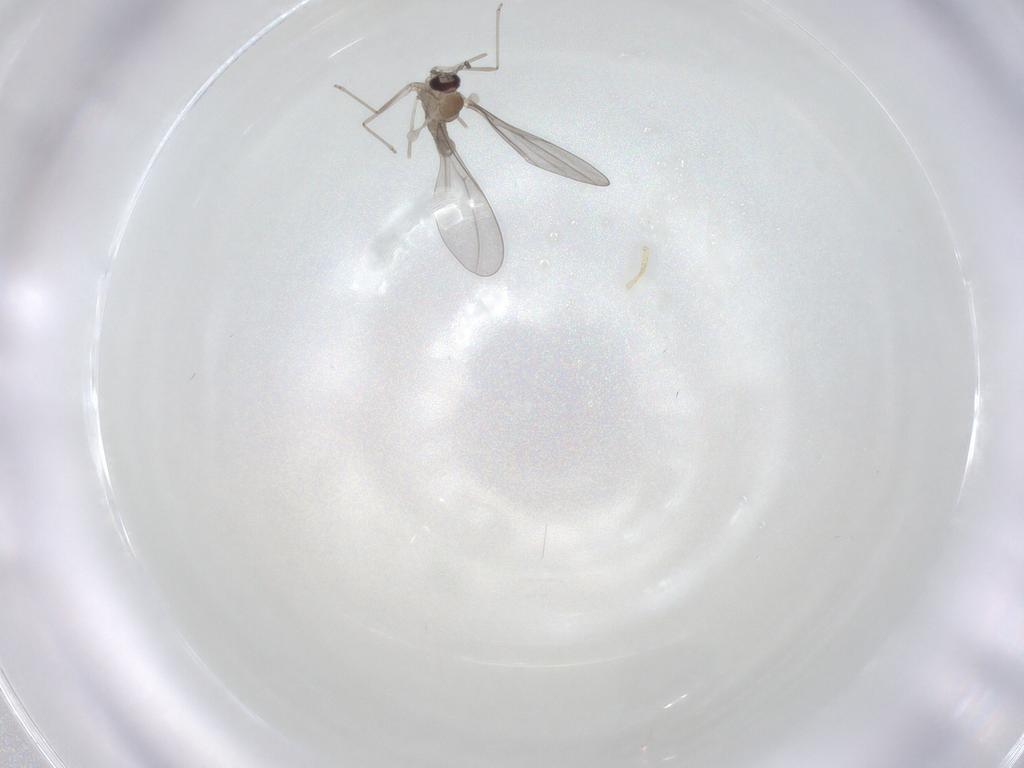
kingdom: Animalia
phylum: Arthropoda
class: Insecta
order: Diptera
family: Cecidomyiidae
